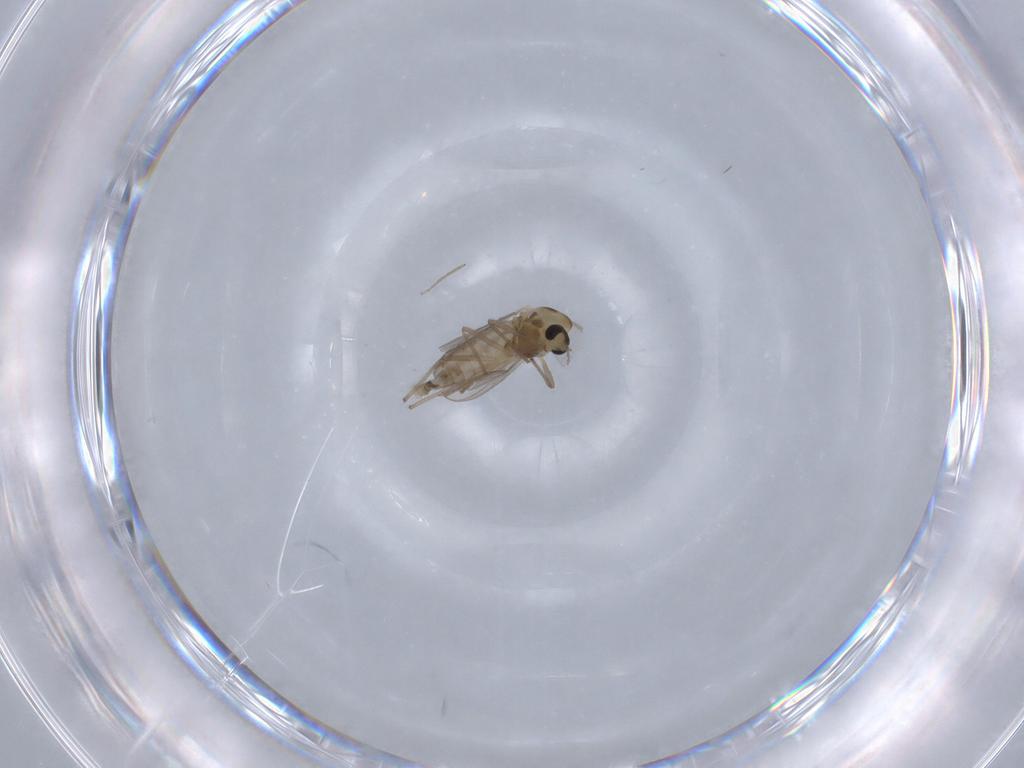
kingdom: Animalia
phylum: Arthropoda
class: Insecta
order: Diptera
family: Chironomidae
